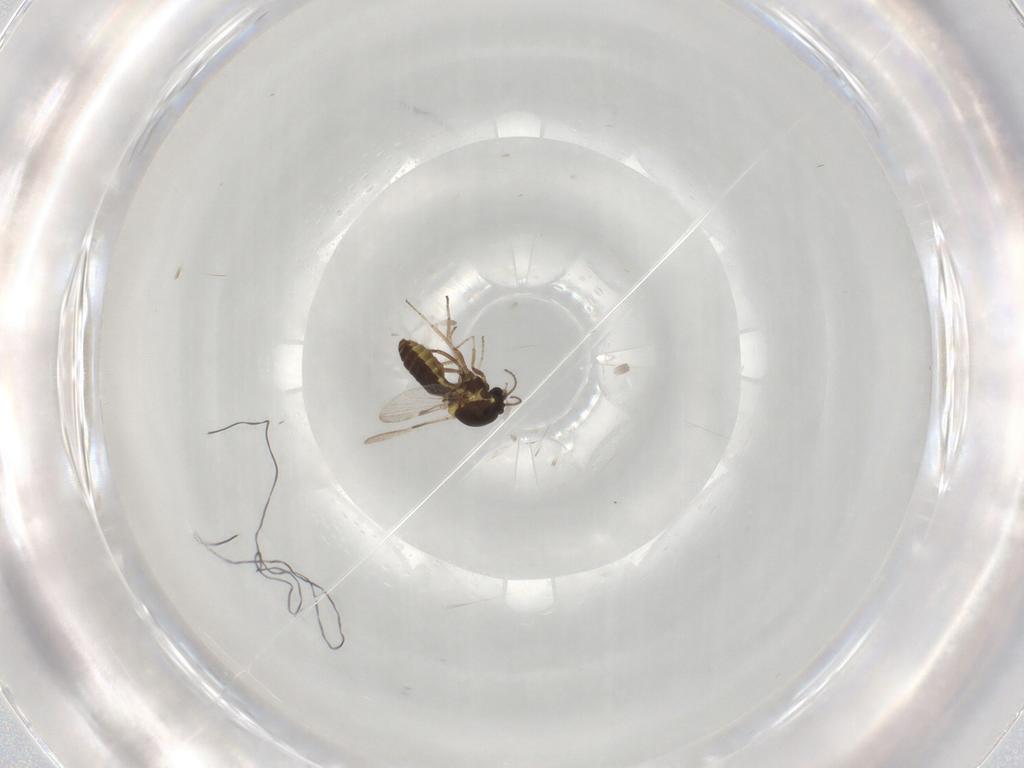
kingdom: Animalia
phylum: Arthropoda
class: Insecta
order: Diptera
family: Ceratopogonidae
